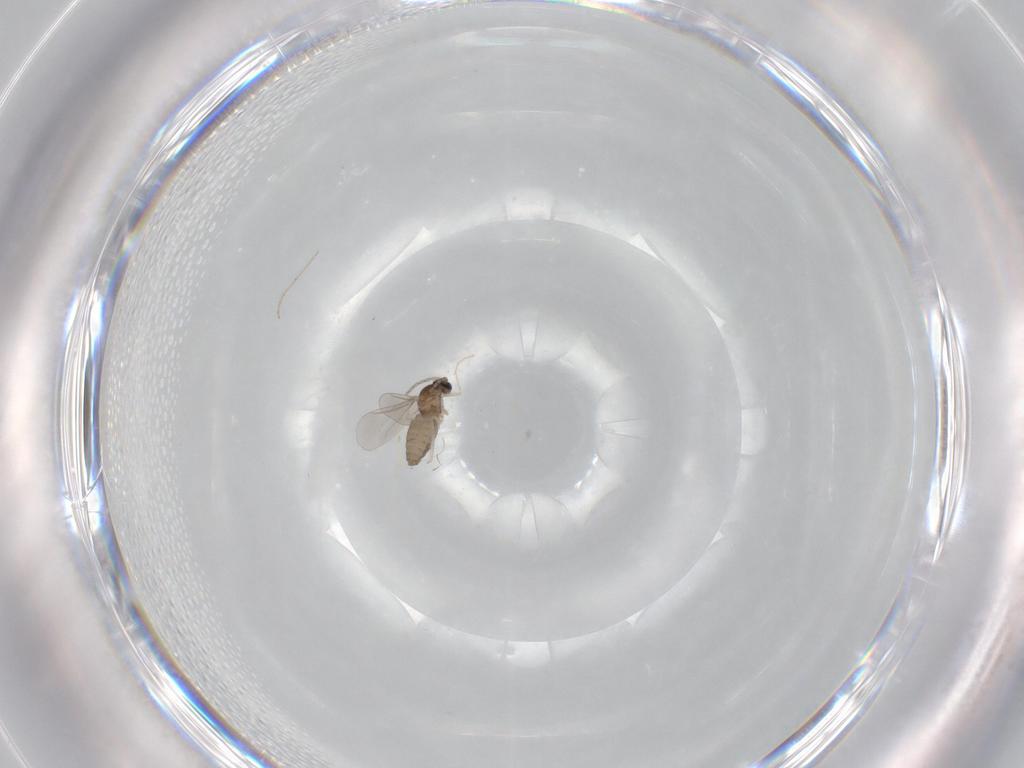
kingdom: Animalia
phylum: Arthropoda
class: Insecta
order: Diptera
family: Cecidomyiidae
